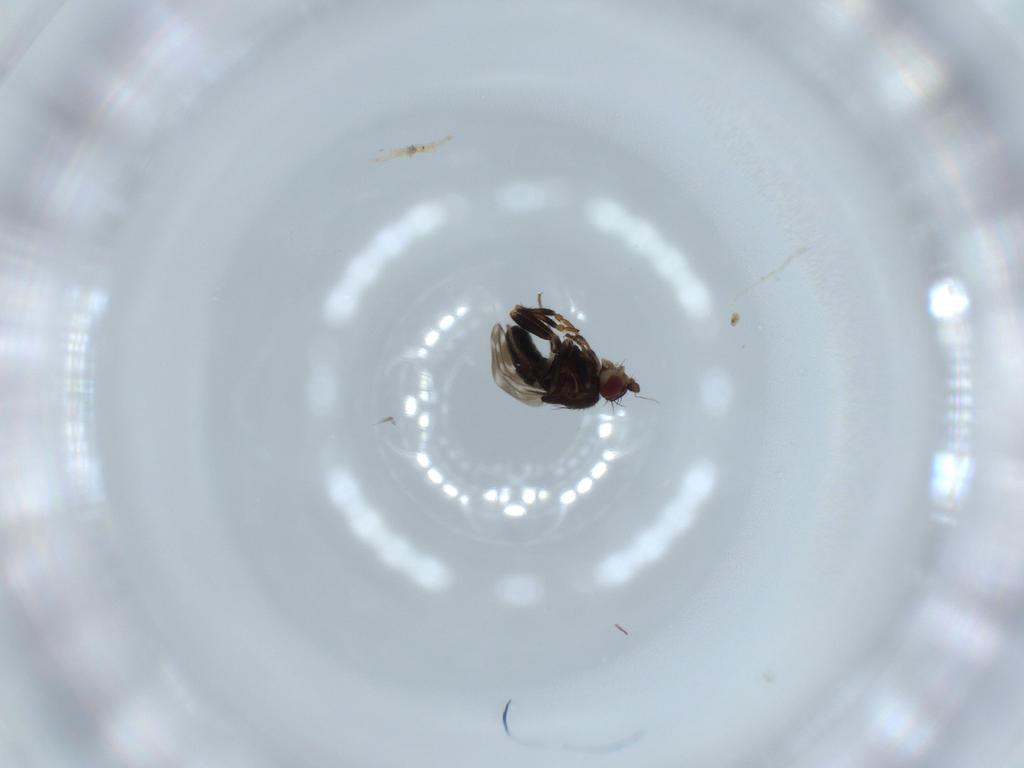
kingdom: Animalia
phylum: Arthropoda
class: Insecta
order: Diptera
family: Sphaeroceridae
